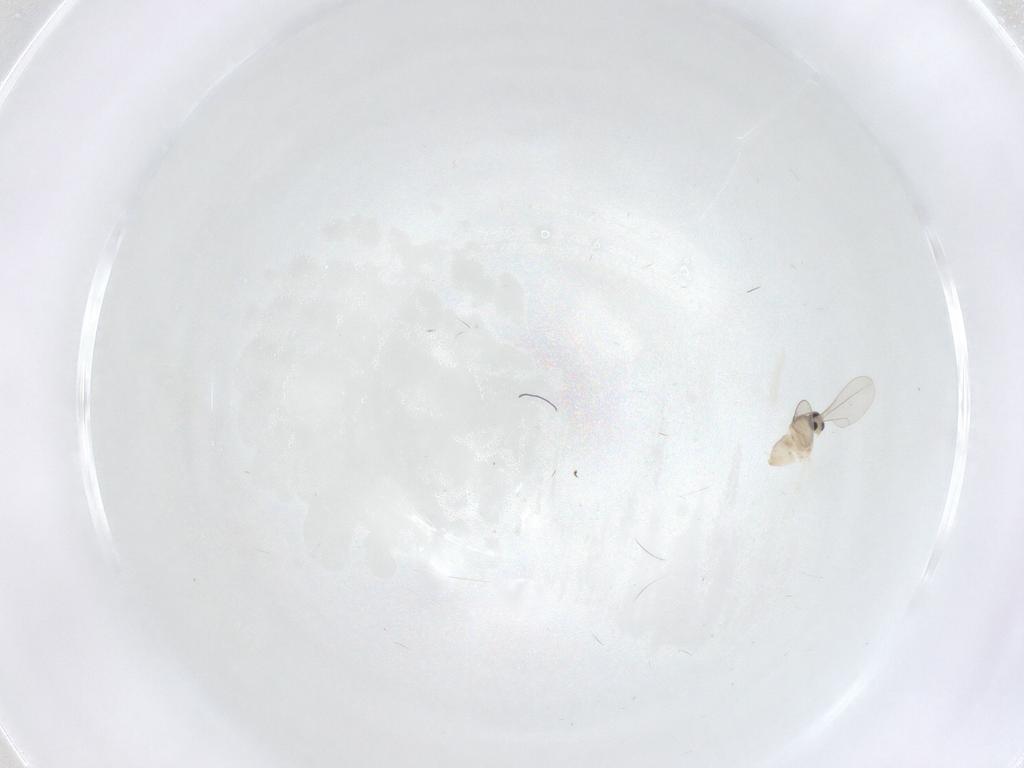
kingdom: Animalia
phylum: Arthropoda
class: Insecta
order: Diptera
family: Cecidomyiidae
